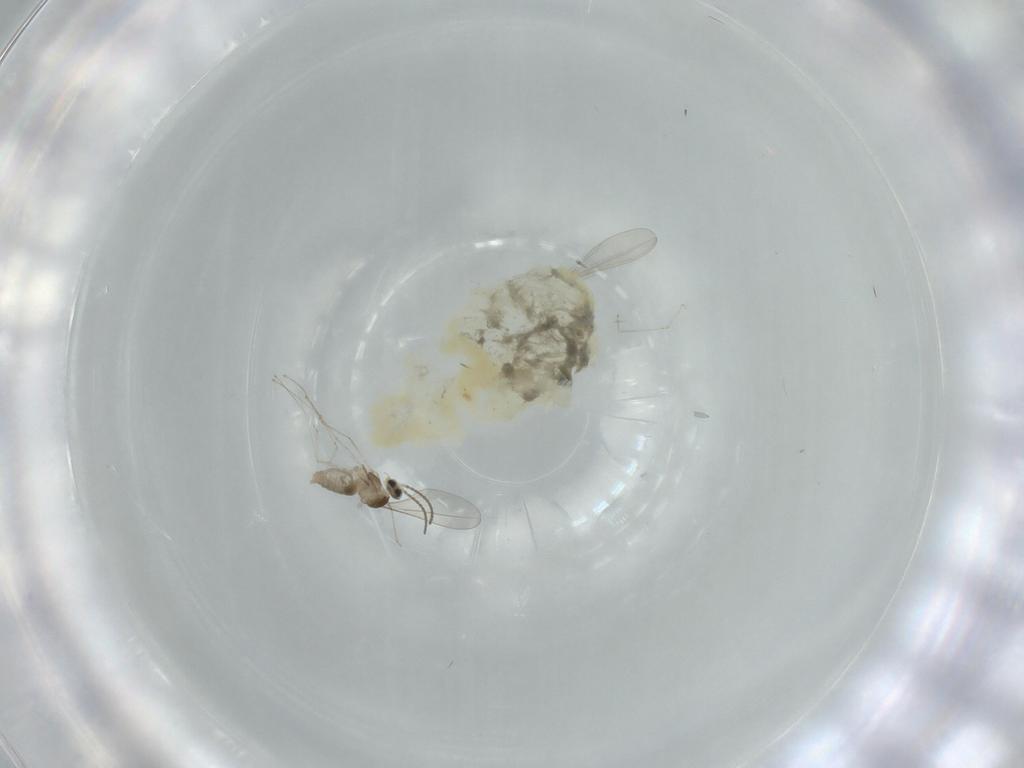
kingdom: Animalia
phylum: Arthropoda
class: Insecta
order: Diptera
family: Cecidomyiidae
